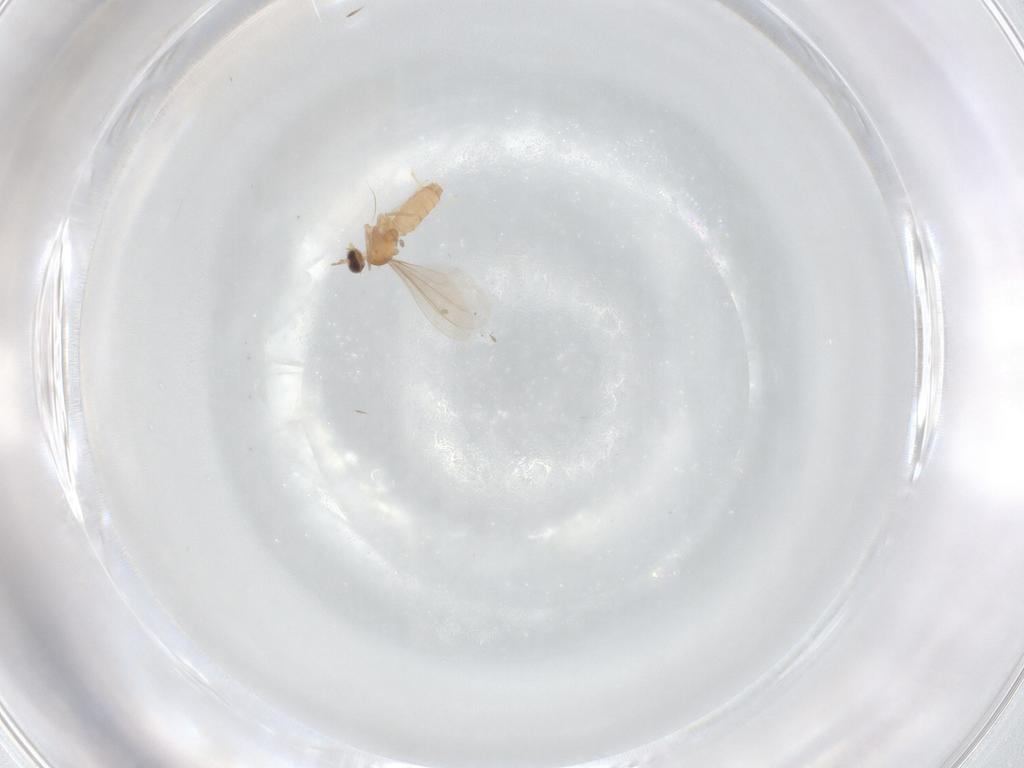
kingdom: Animalia
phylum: Arthropoda
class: Insecta
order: Diptera
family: Cecidomyiidae
